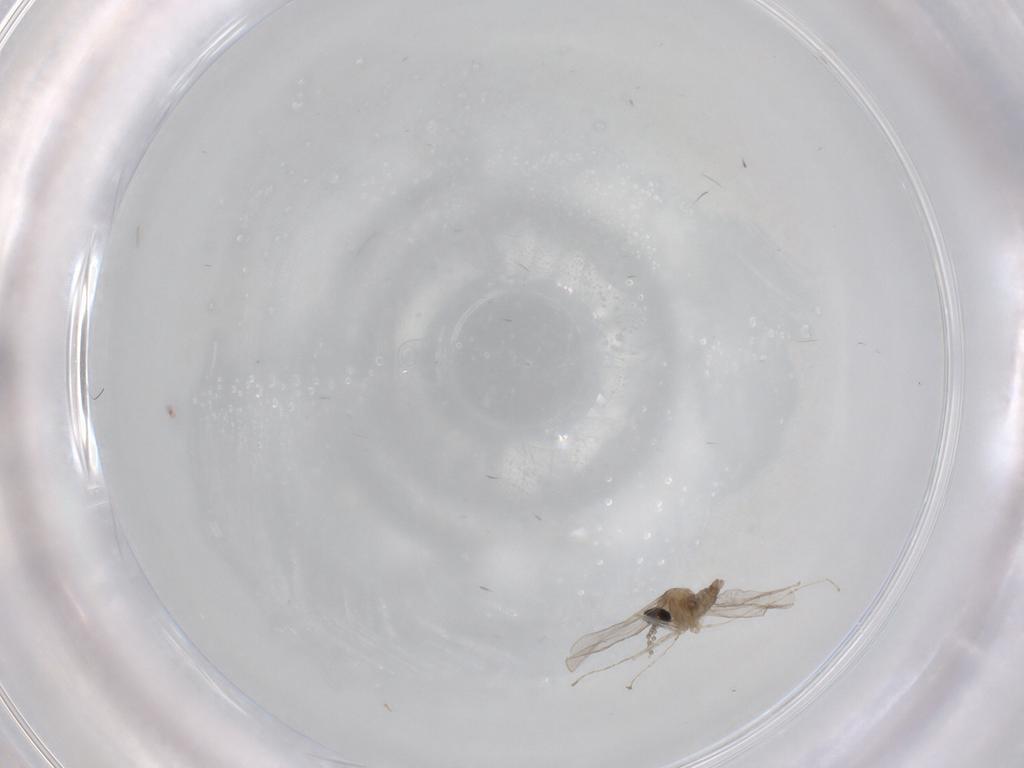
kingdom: Animalia
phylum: Arthropoda
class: Insecta
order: Diptera
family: Cecidomyiidae
